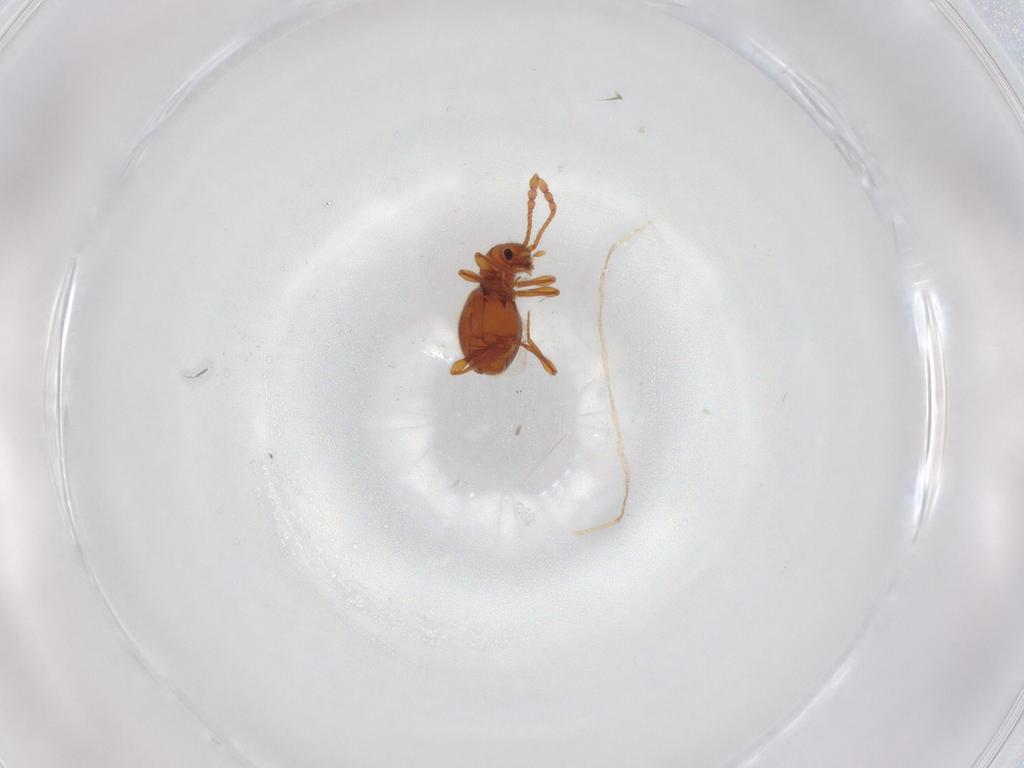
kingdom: Animalia
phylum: Arthropoda
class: Insecta
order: Coleoptera
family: Staphylinidae
